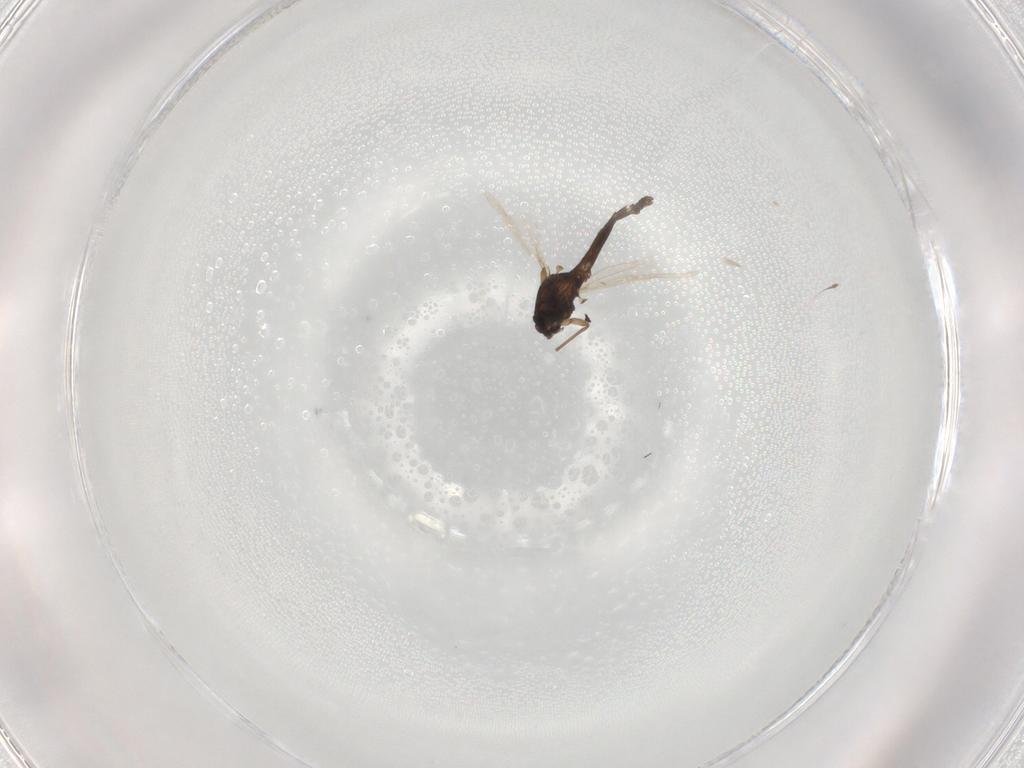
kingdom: Animalia
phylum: Arthropoda
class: Insecta
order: Diptera
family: Chironomidae
